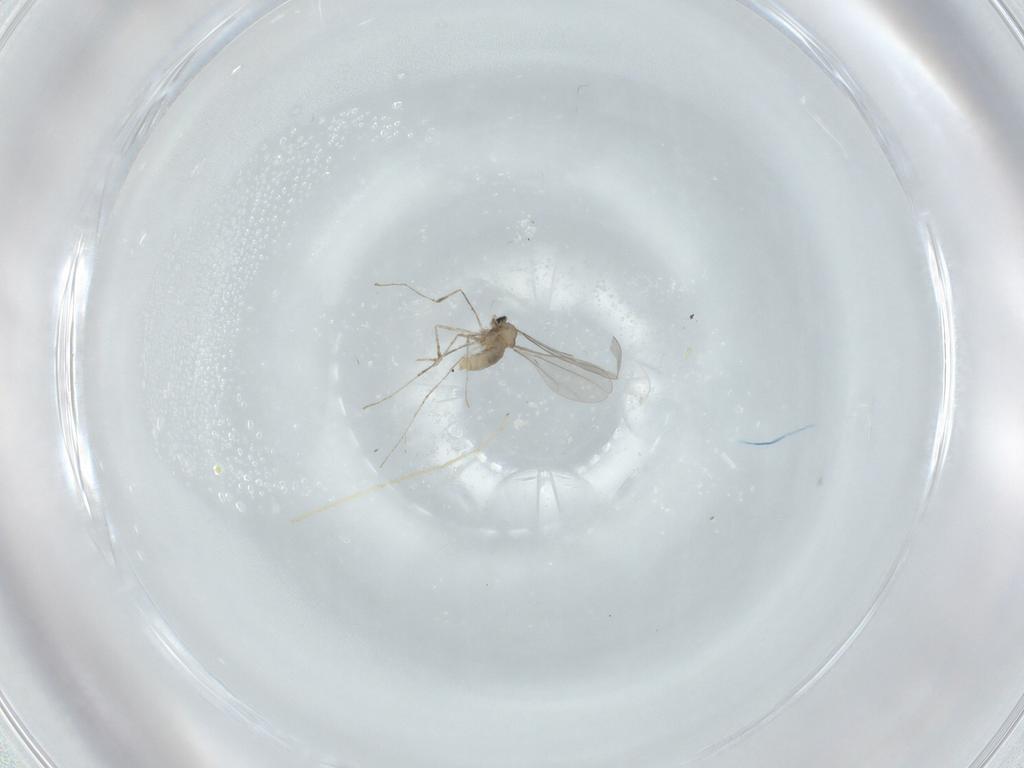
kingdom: Animalia
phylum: Arthropoda
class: Insecta
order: Diptera
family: Cecidomyiidae
